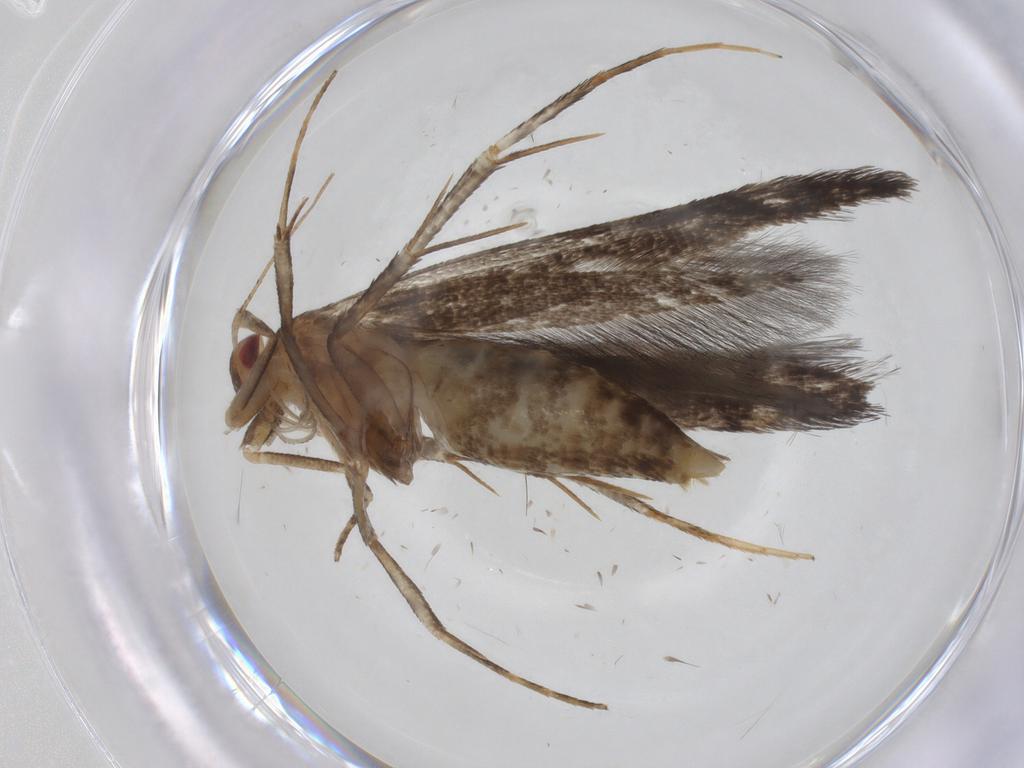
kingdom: Animalia
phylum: Arthropoda
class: Insecta
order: Lepidoptera
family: Cosmopterigidae
